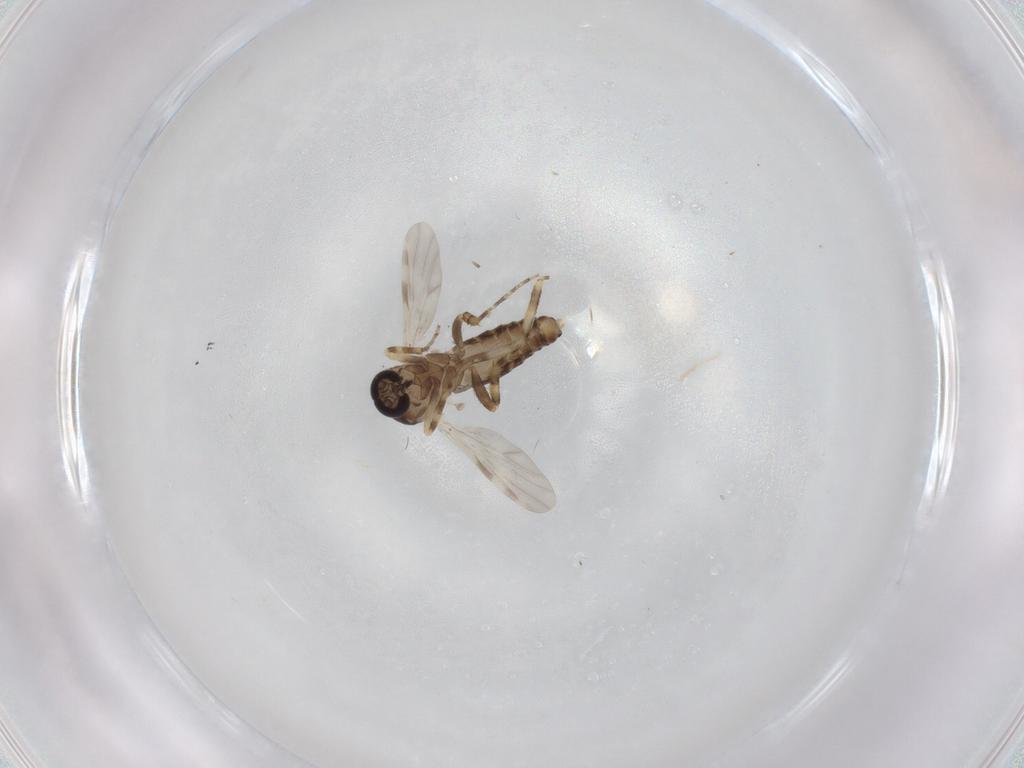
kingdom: Animalia
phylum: Arthropoda
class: Insecta
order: Diptera
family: Ceratopogonidae
